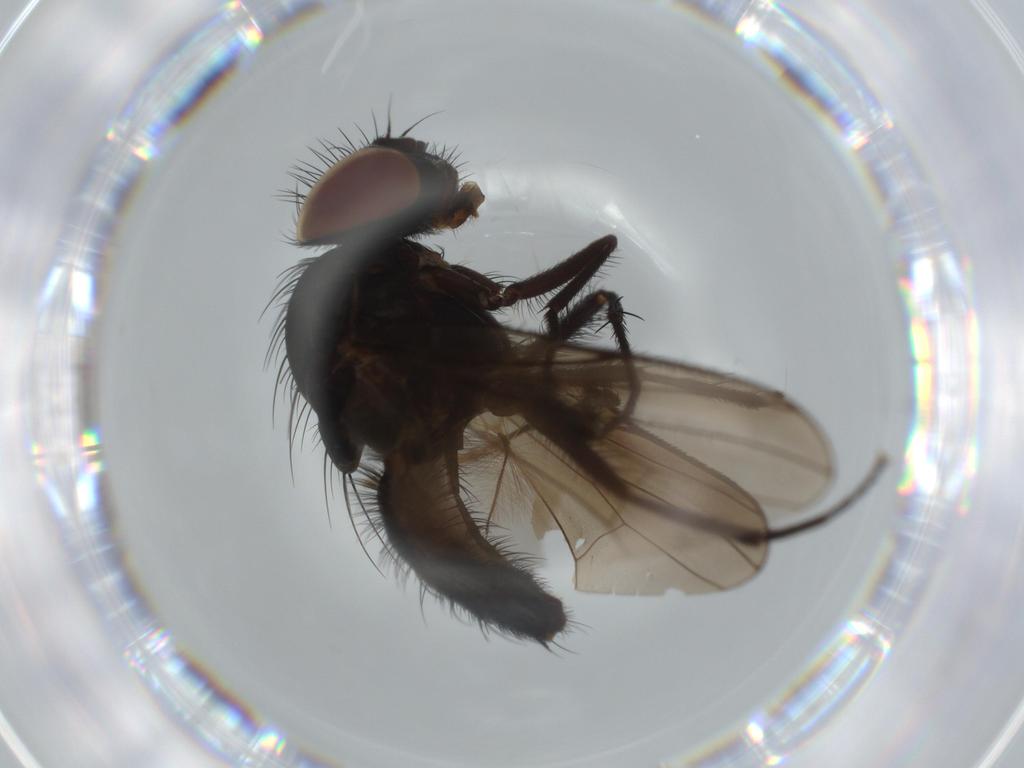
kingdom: Animalia
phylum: Arthropoda
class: Insecta
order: Diptera
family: Fannia
